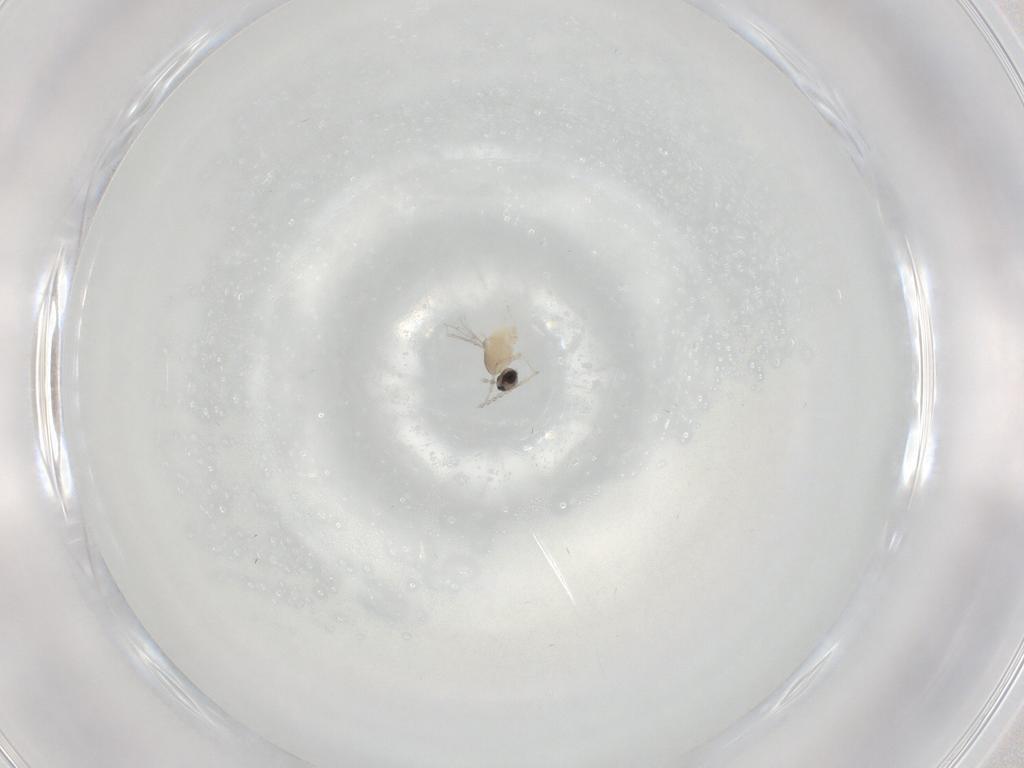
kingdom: Animalia
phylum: Arthropoda
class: Insecta
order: Diptera
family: Cecidomyiidae
